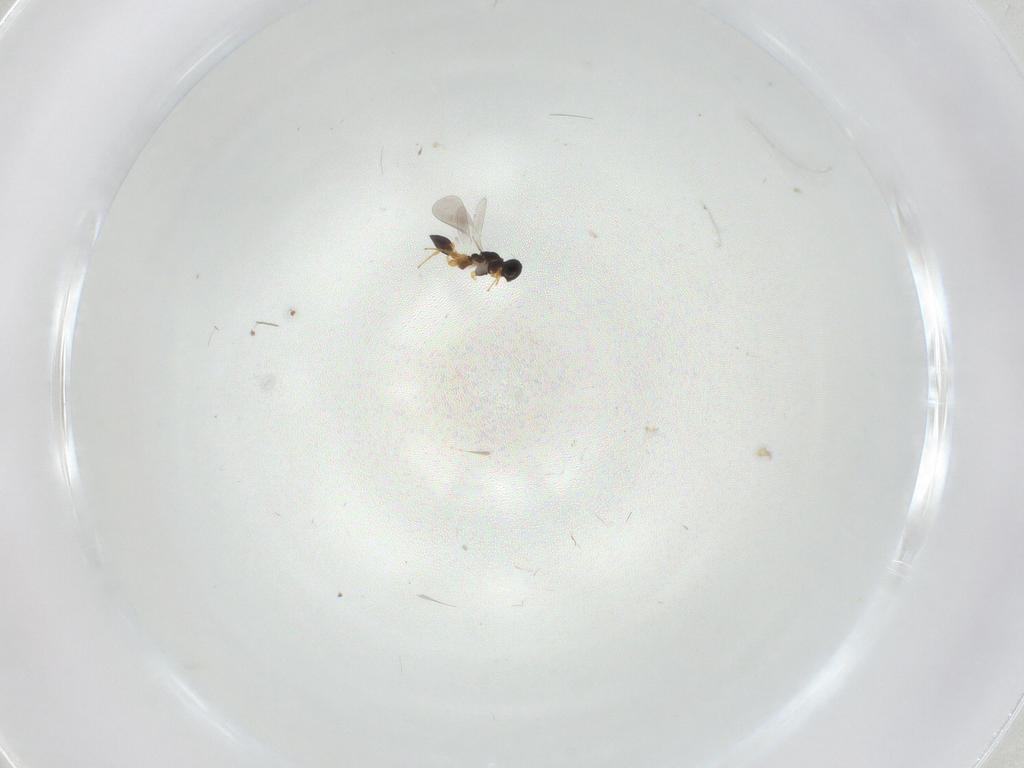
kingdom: Animalia
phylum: Arthropoda
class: Insecta
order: Hymenoptera
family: Platygastridae
